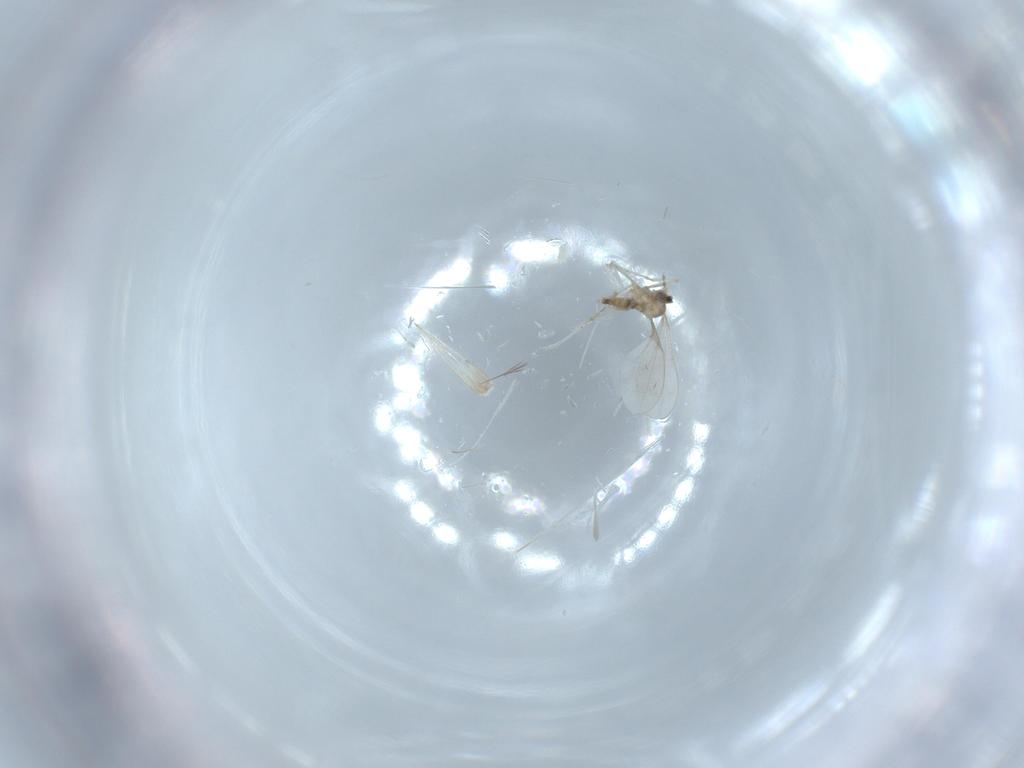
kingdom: Animalia
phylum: Arthropoda
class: Insecta
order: Diptera
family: Cecidomyiidae
